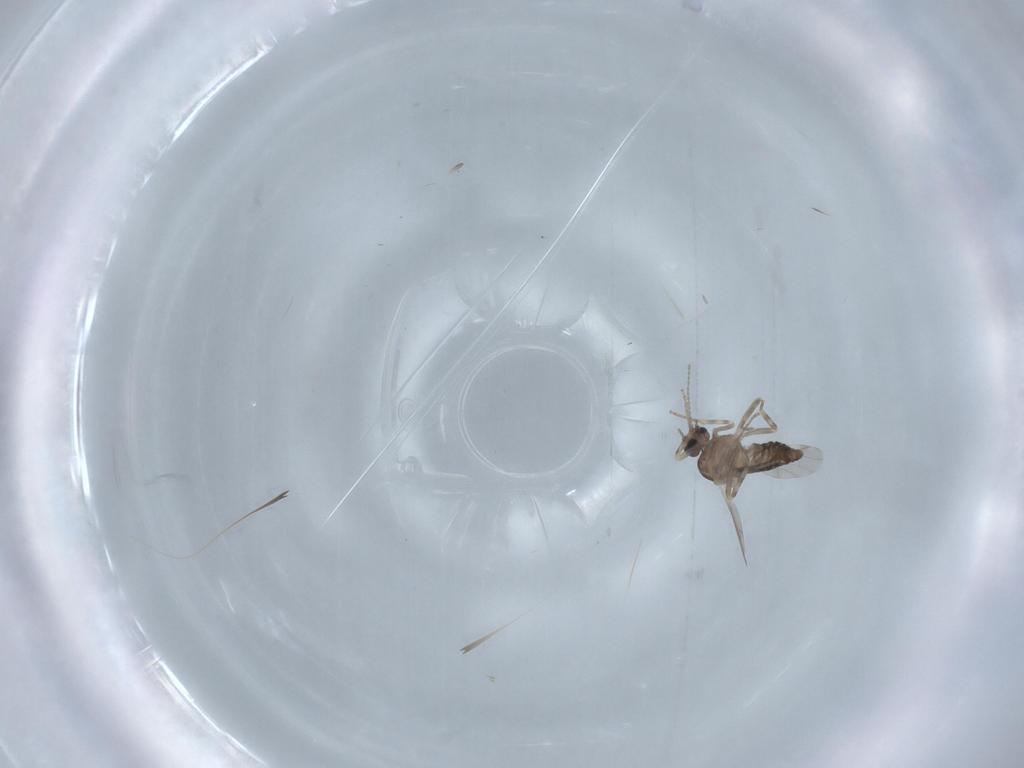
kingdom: Animalia
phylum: Arthropoda
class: Insecta
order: Diptera
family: Ceratopogonidae
